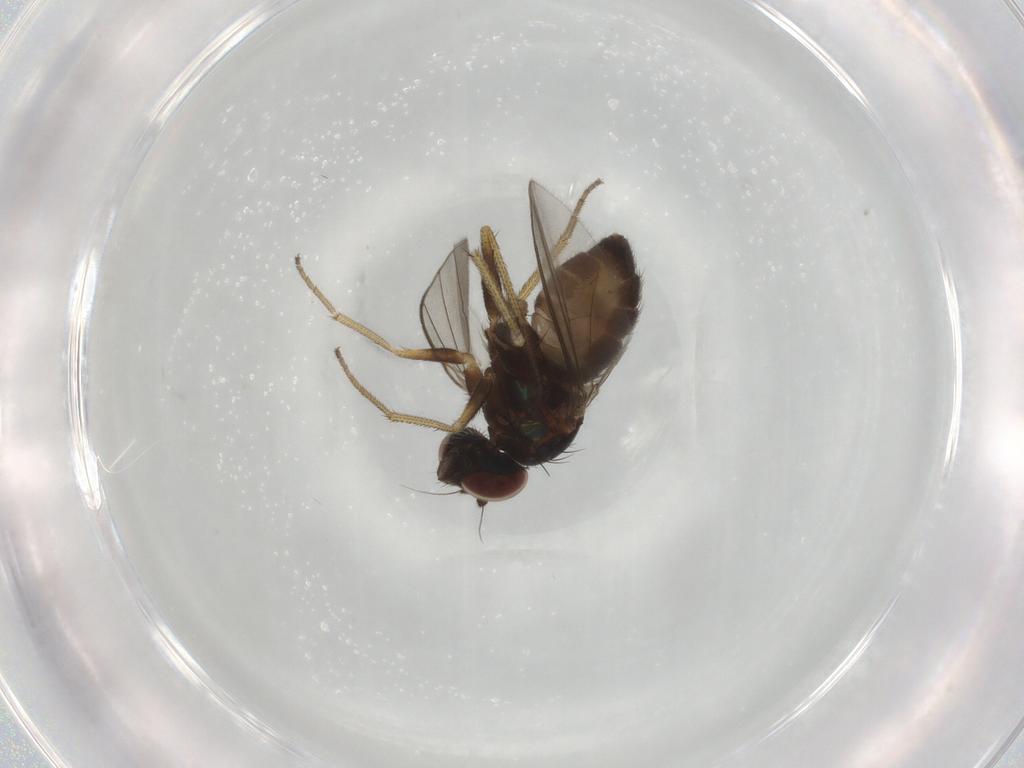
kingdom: Animalia
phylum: Arthropoda
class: Insecta
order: Diptera
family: Dolichopodidae
